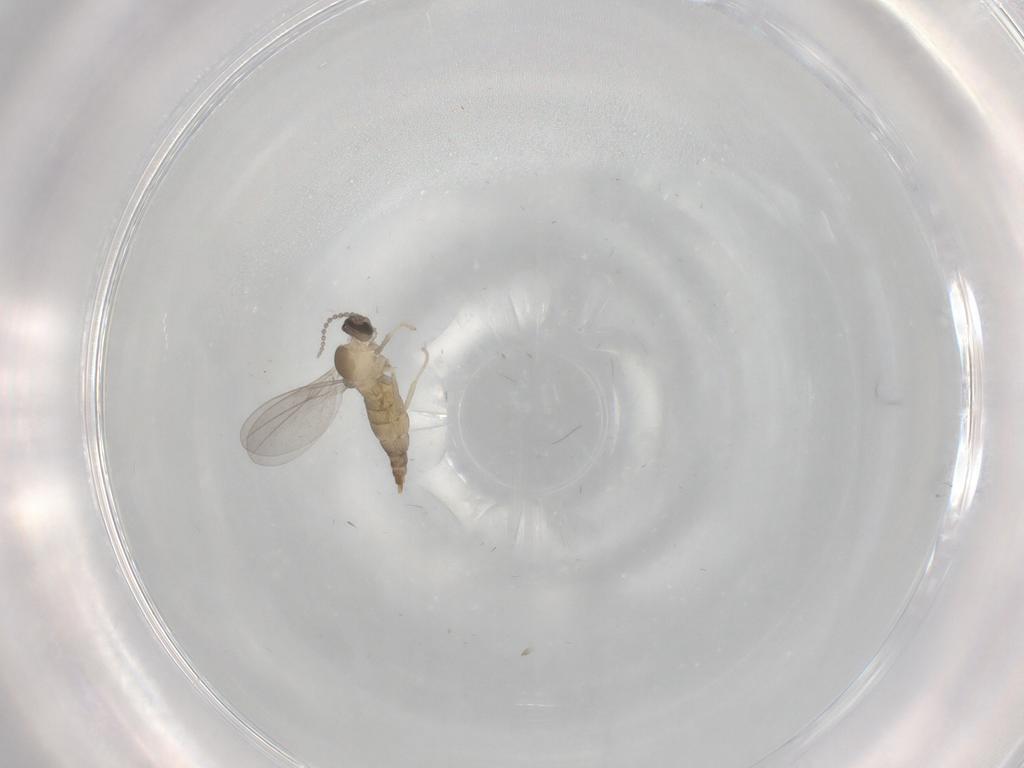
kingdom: Animalia
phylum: Arthropoda
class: Insecta
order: Diptera
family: Cecidomyiidae
